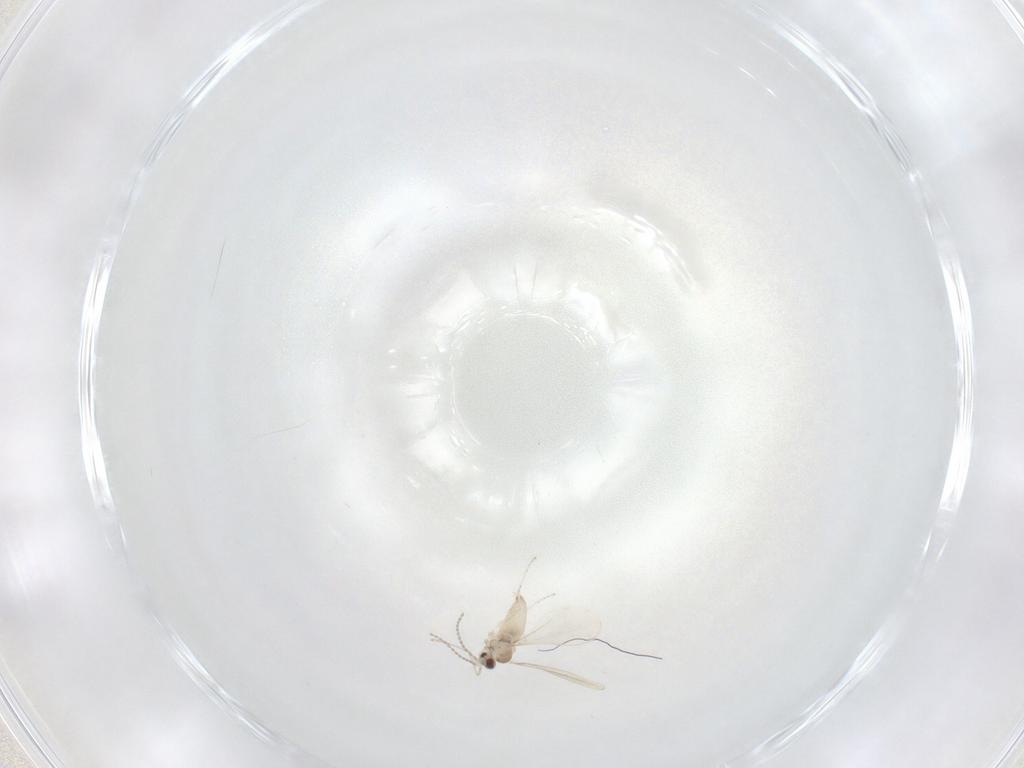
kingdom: Animalia
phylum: Arthropoda
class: Insecta
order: Diptera
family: Cecidomyiidae
